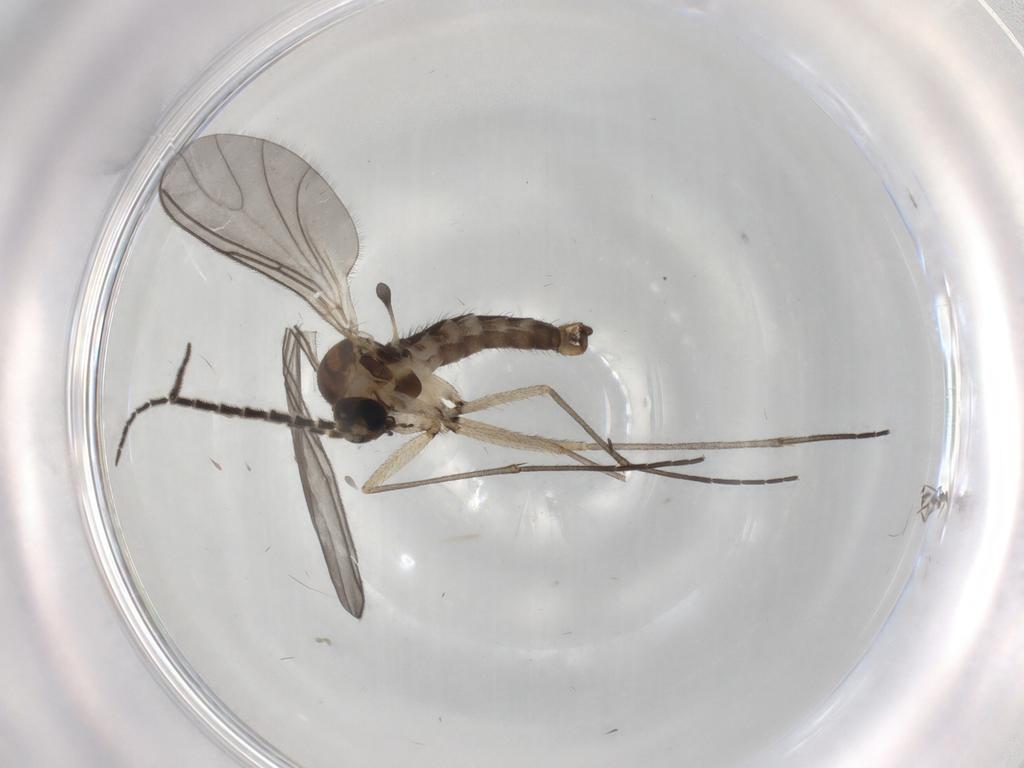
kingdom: Animalia
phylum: Arthropoda
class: Insecta
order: Diptera
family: Sciaridae
